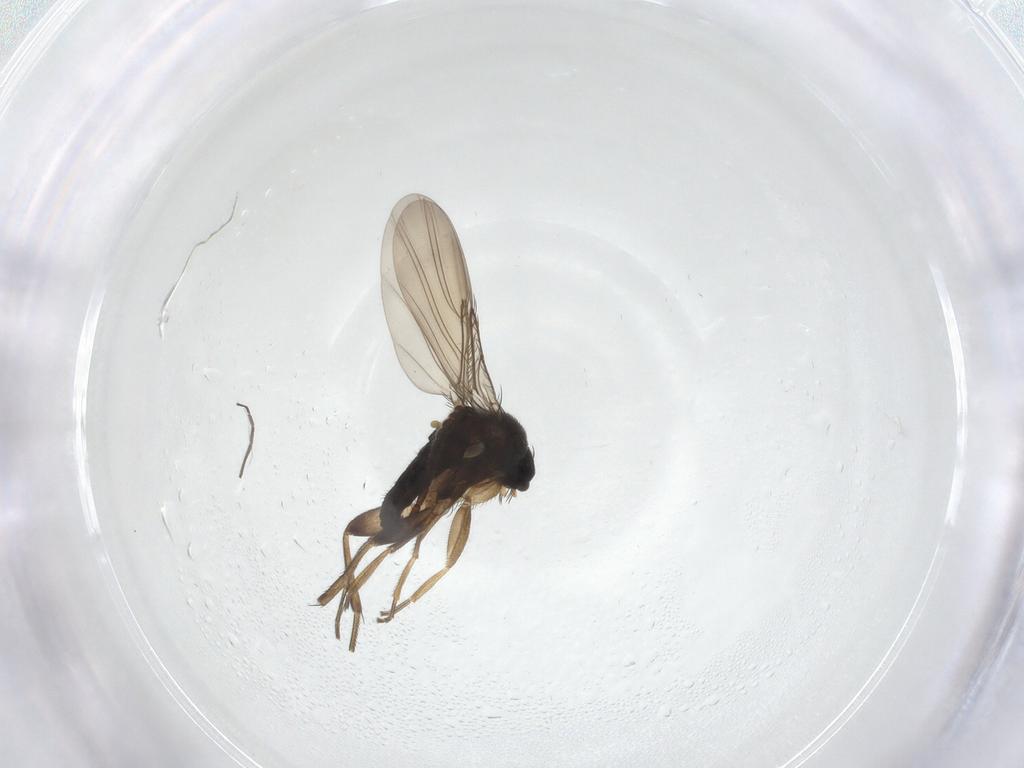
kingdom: Animalia
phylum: Arthropoda
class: Insecta
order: Diptera
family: Phoridae
